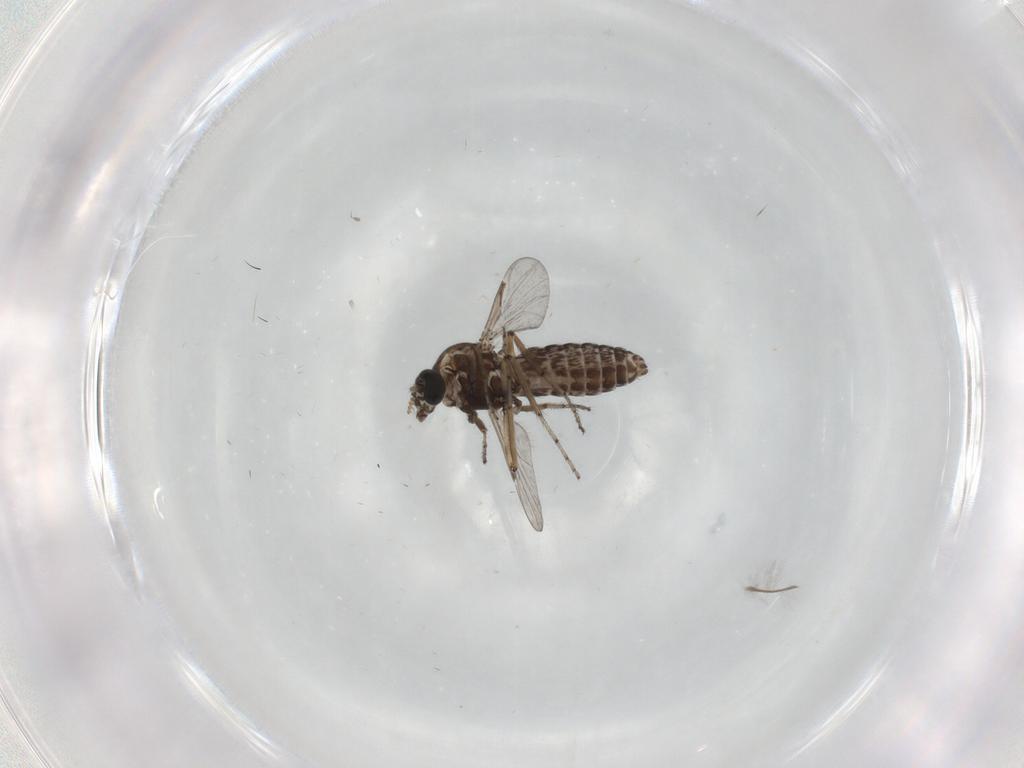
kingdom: Animalia
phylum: Arthropoda
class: Insecta
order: Diptera
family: Ceratopogonidae
